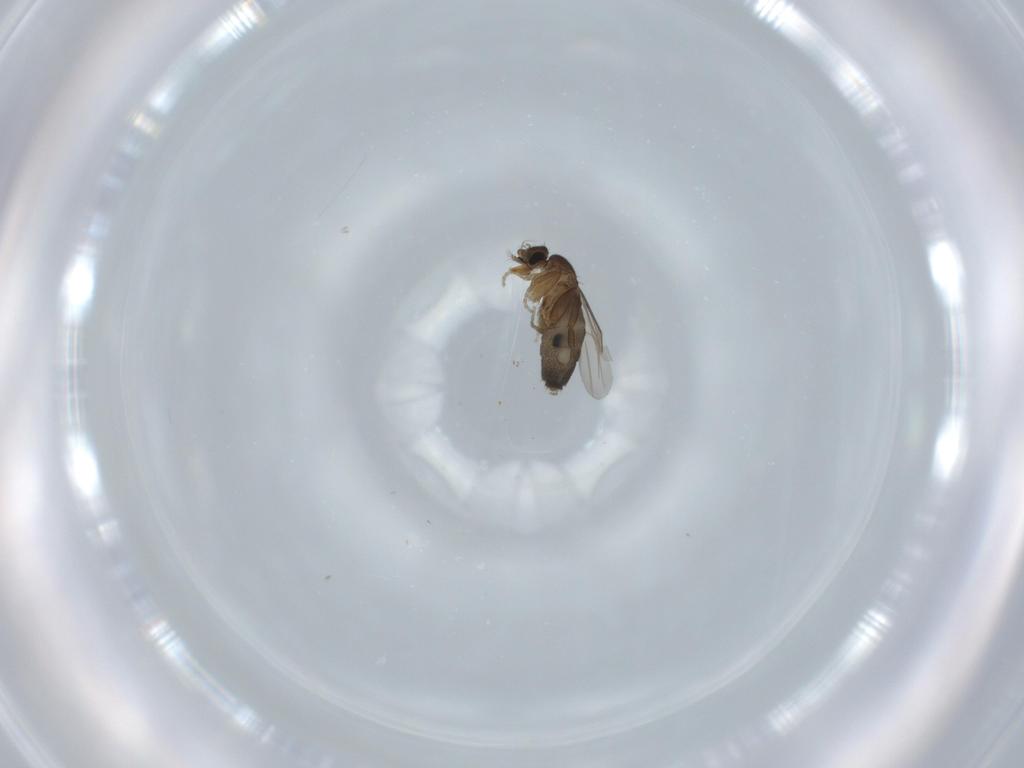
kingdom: Animalia
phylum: Arthropoda
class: Insecta
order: Diptera
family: Phoridae
